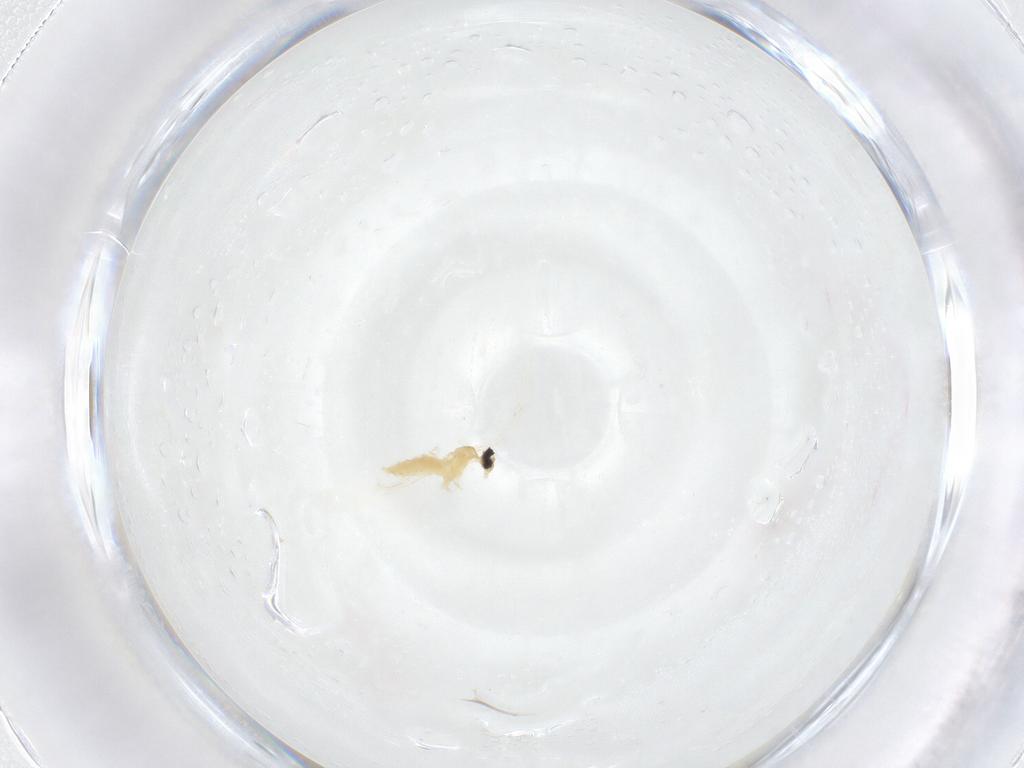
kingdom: Animalia
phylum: Arthropoda
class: Insecta
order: Diptera
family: Cecidomyiidae
